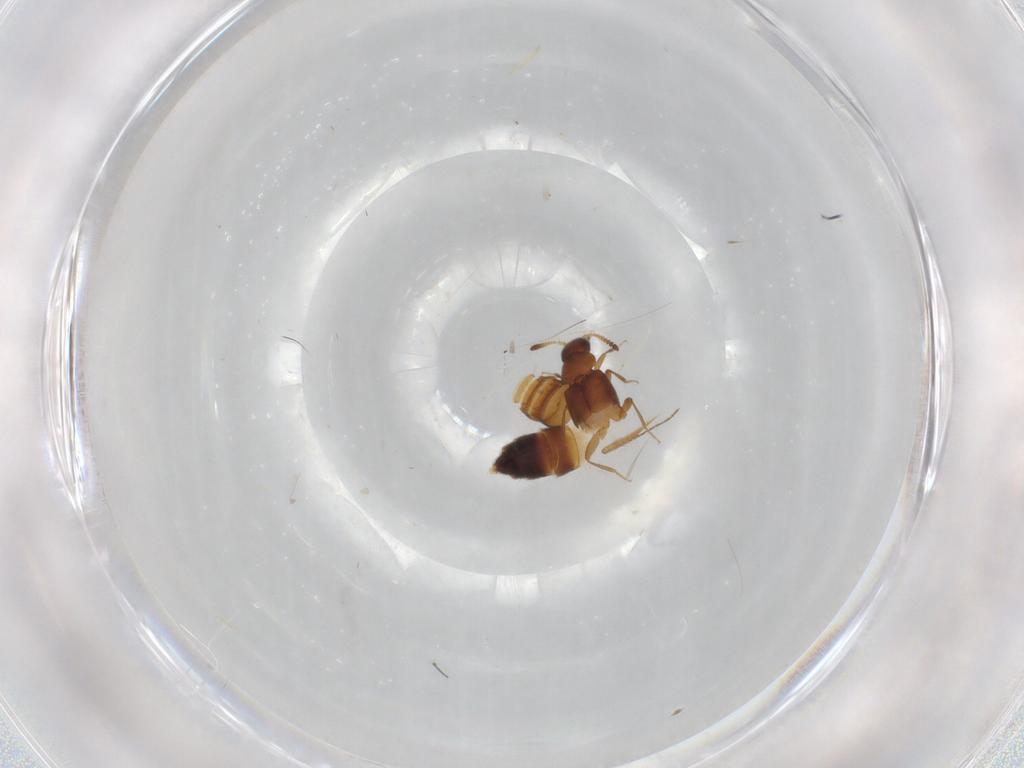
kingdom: Animalia
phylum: Arthropoda
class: Insecta
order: Coleoptera
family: Staphylinidae
